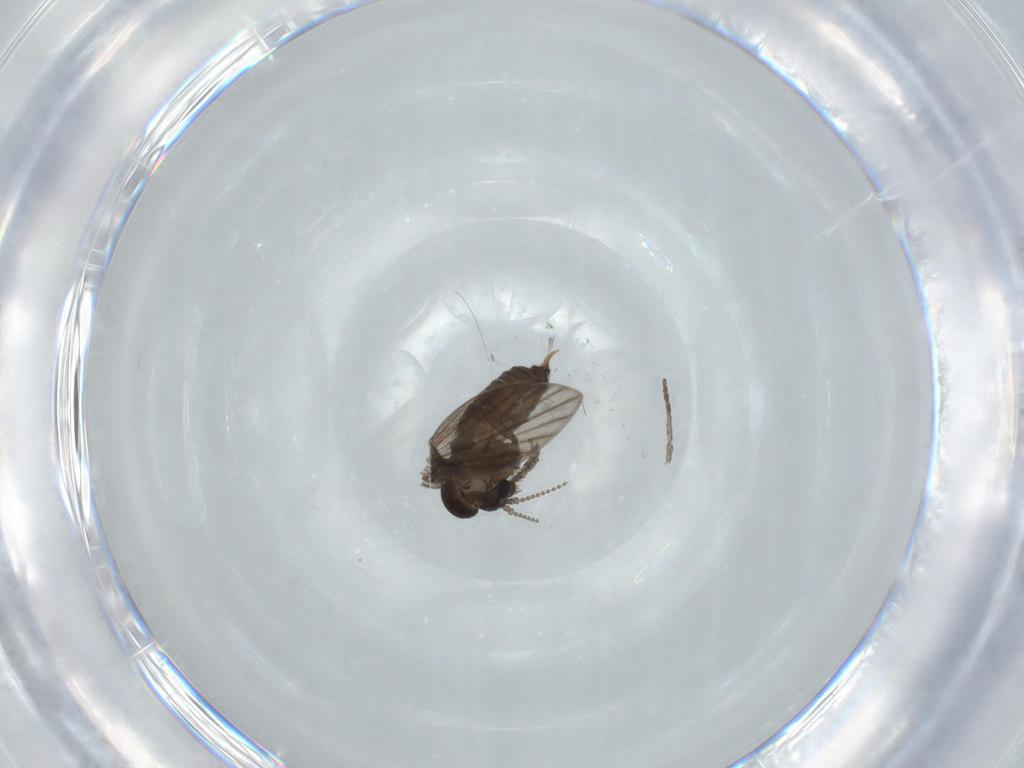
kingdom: Animalia
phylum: Arthropoda
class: Insecta
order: Diptera
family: Psychodidae
